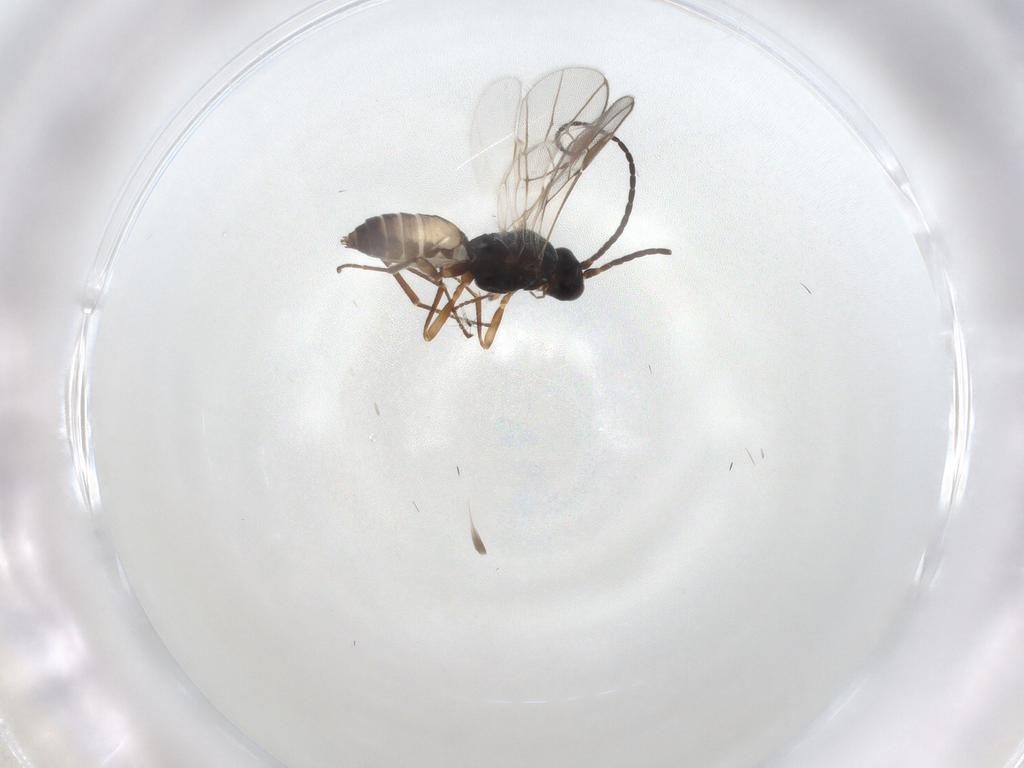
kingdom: Animalia
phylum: Arthropoda
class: Insecta
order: Hymenoptera
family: Braconidae
